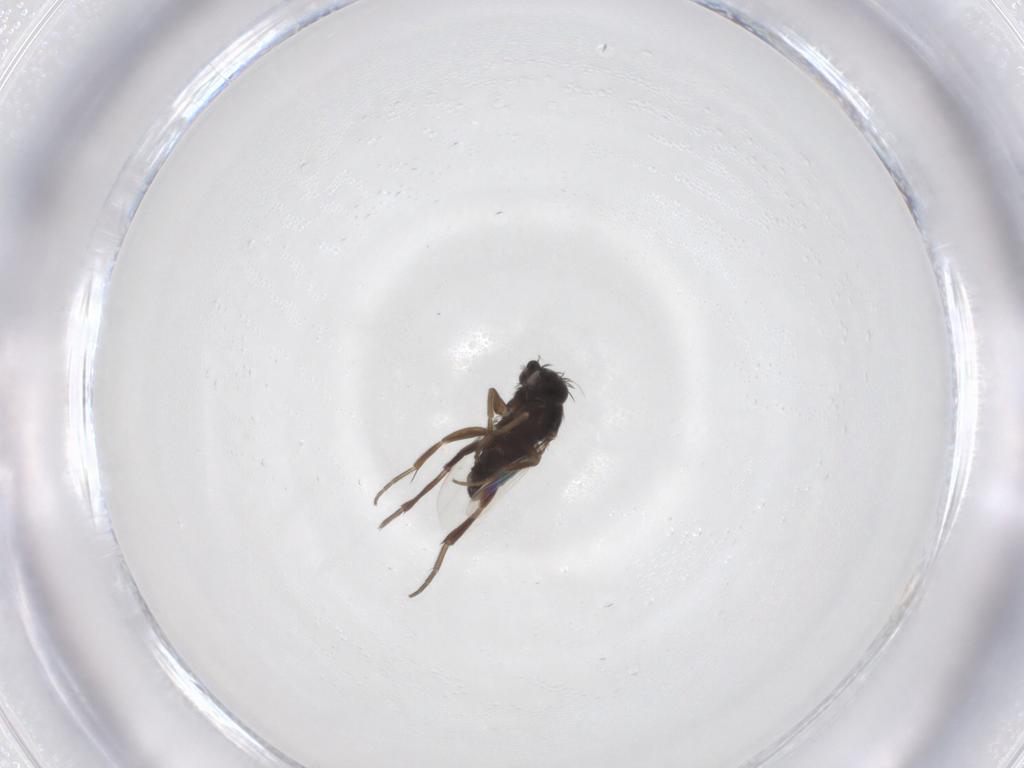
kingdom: Animalia
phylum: Arthropoda
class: Insecta
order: Diptera
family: Phoridae
